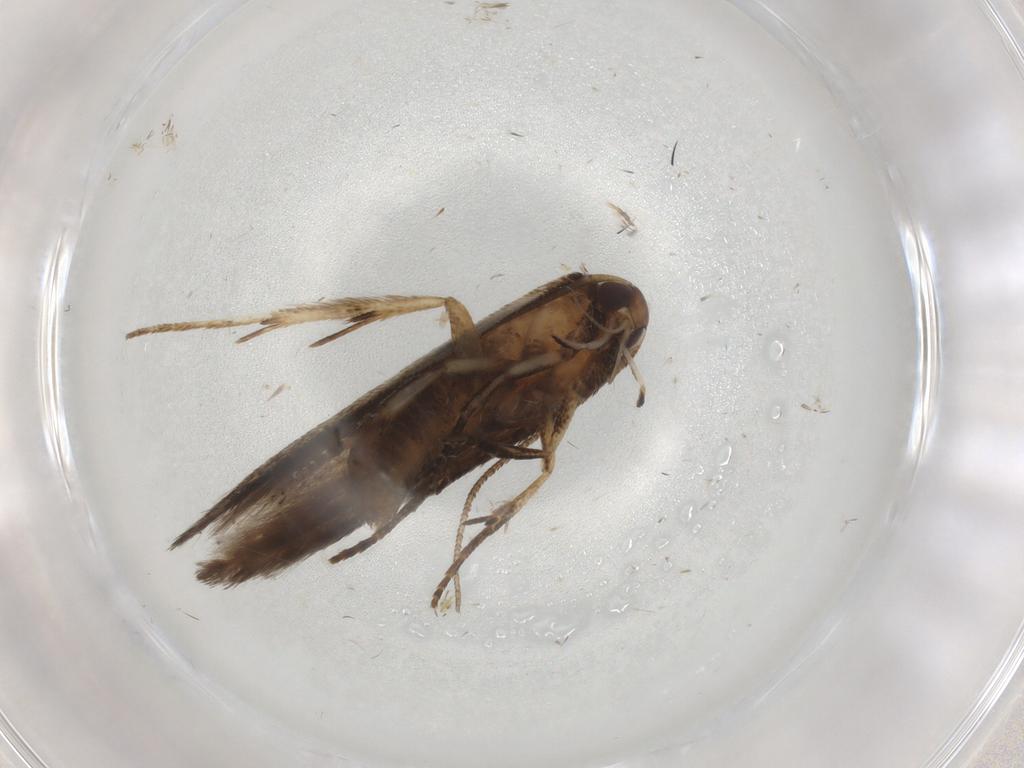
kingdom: Animalia
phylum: Arthropoda
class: Insecta
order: Lepidoptera
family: Cosmopterigidae
